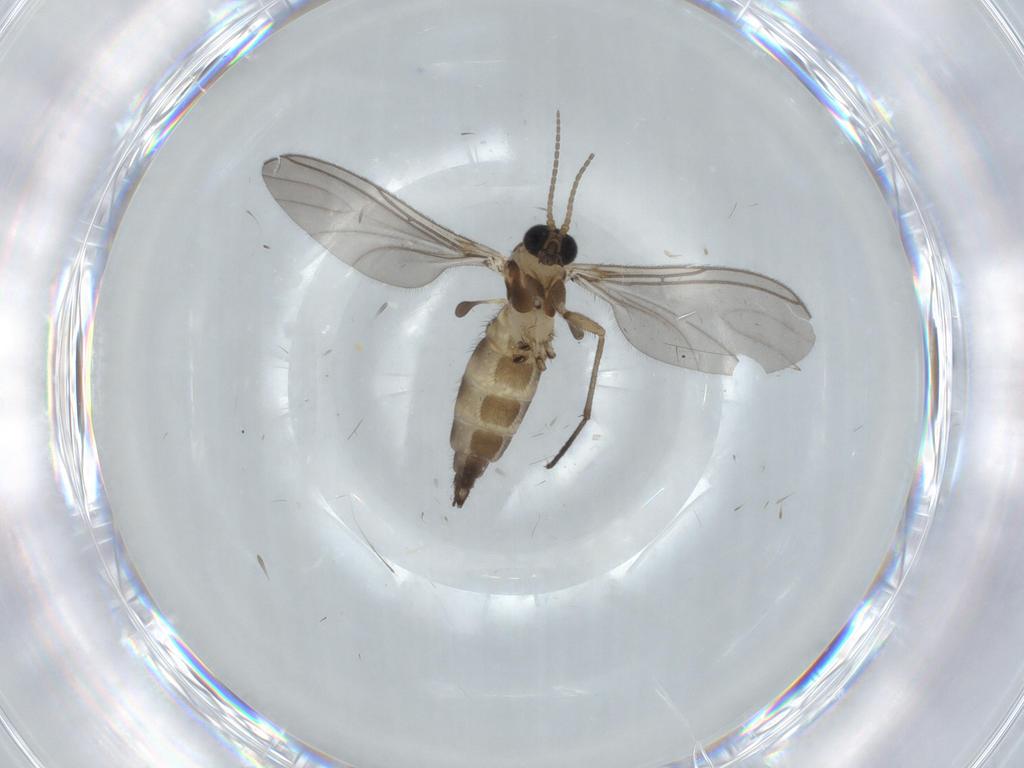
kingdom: Animalia
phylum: Arthropoda
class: Insecta
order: Diptera
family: Sciaridae
